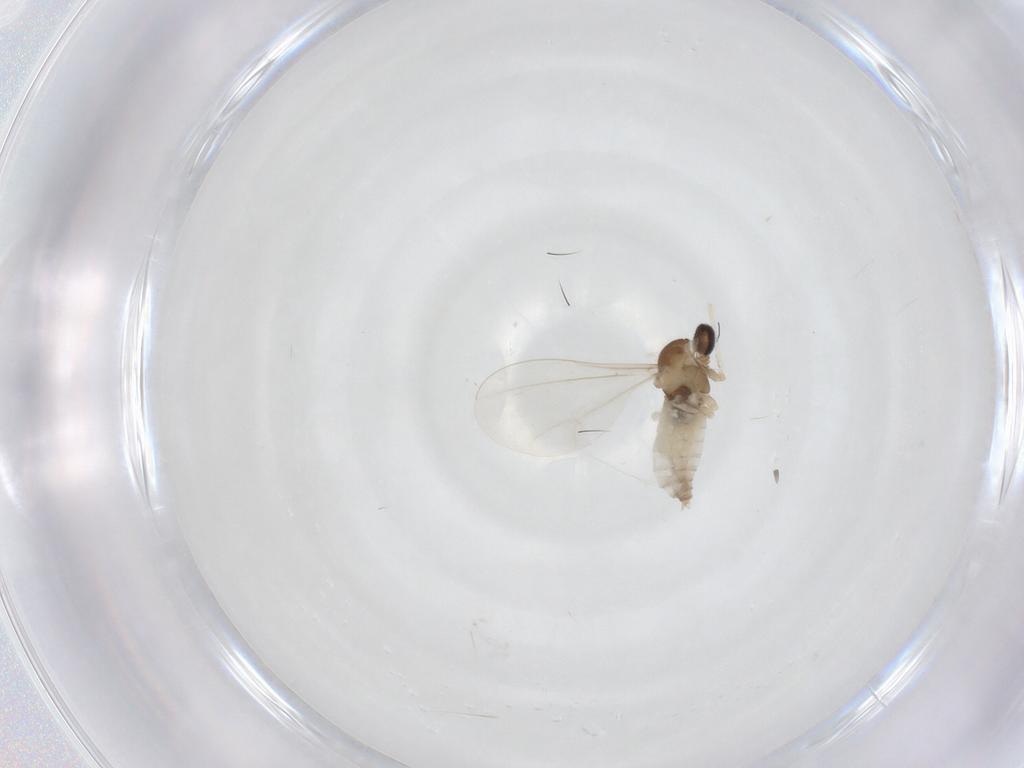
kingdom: Animalia
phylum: Arthropoda
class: Insecta
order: Diptera
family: Cecidomyiidae
